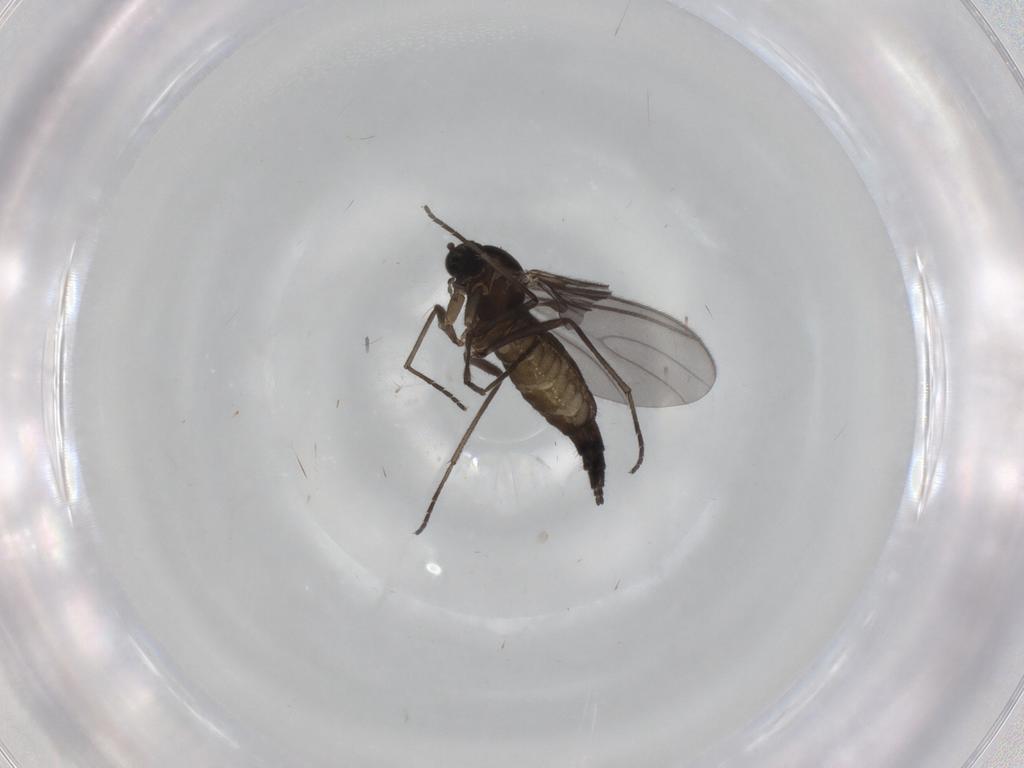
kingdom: Animalia
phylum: Arthropoda
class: Insecta
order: Diptera
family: Sciaridae
